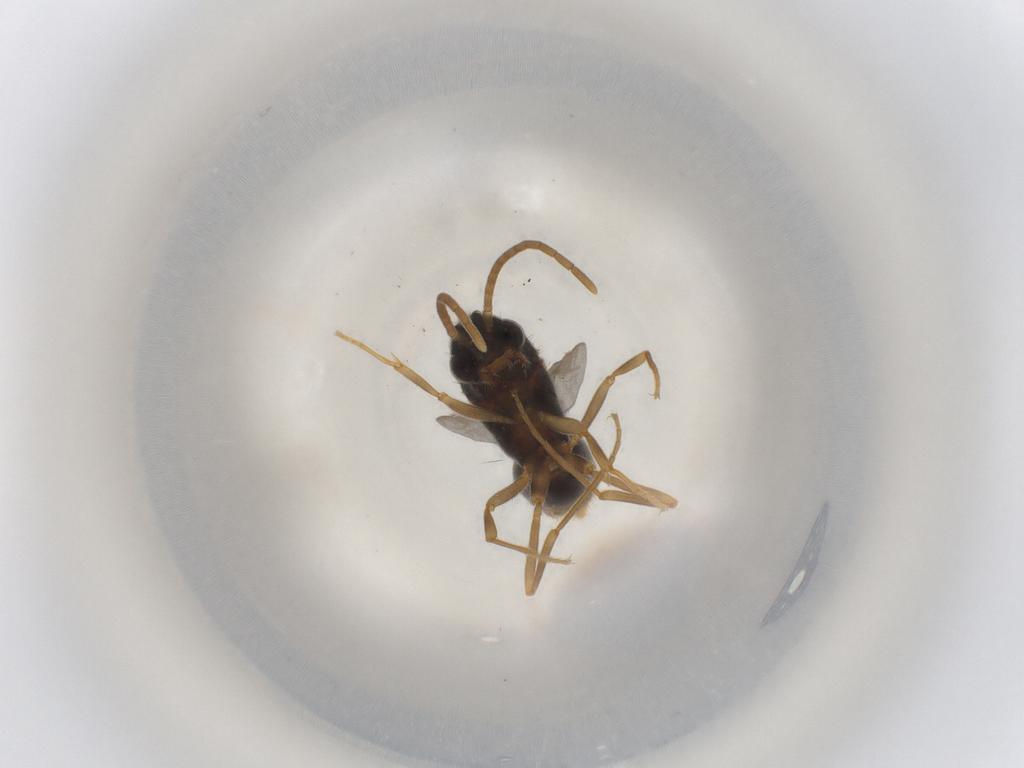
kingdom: Animalia
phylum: Arthropoda
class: Insecta
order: Hymenoptera
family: Formicidae
